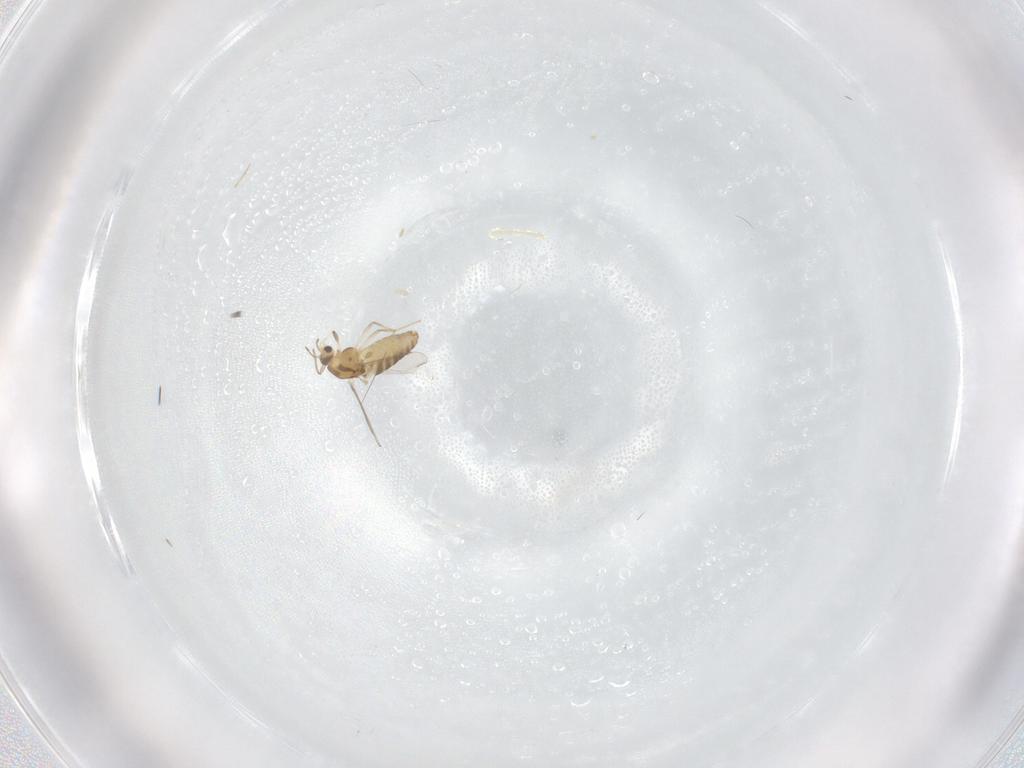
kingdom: Animalia
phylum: Arthropoda
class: Insecta
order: Diptera
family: Chironomidae
